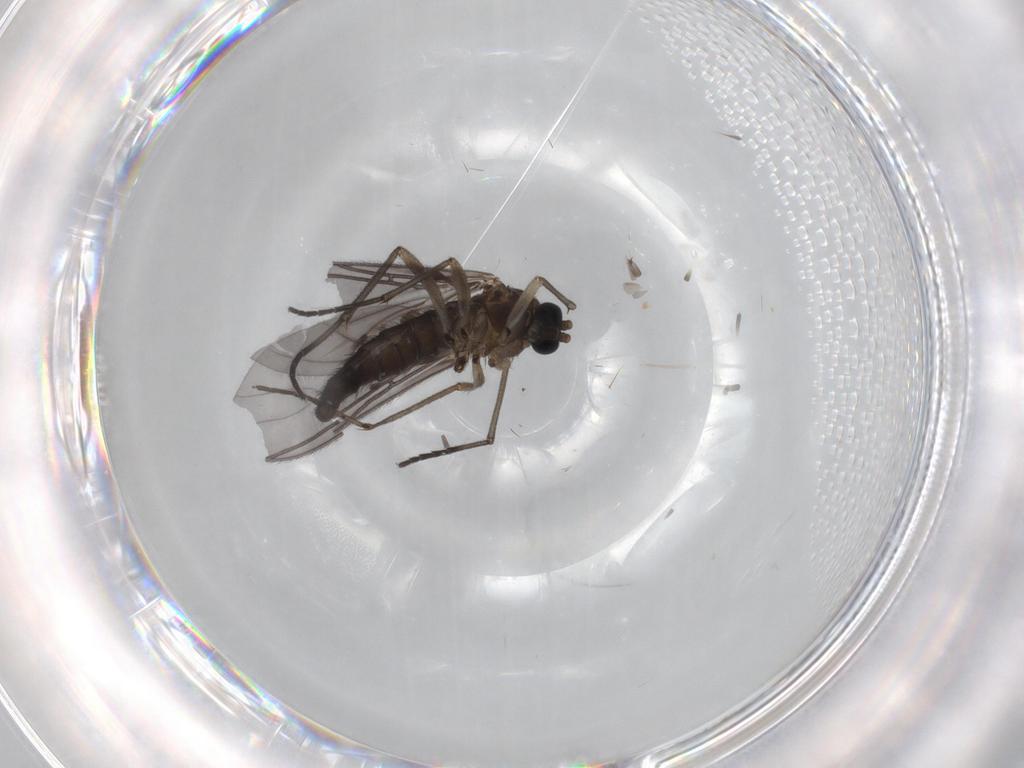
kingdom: Animalia
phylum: Arthropoda
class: Insecta
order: Diptera
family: Sciaridae
